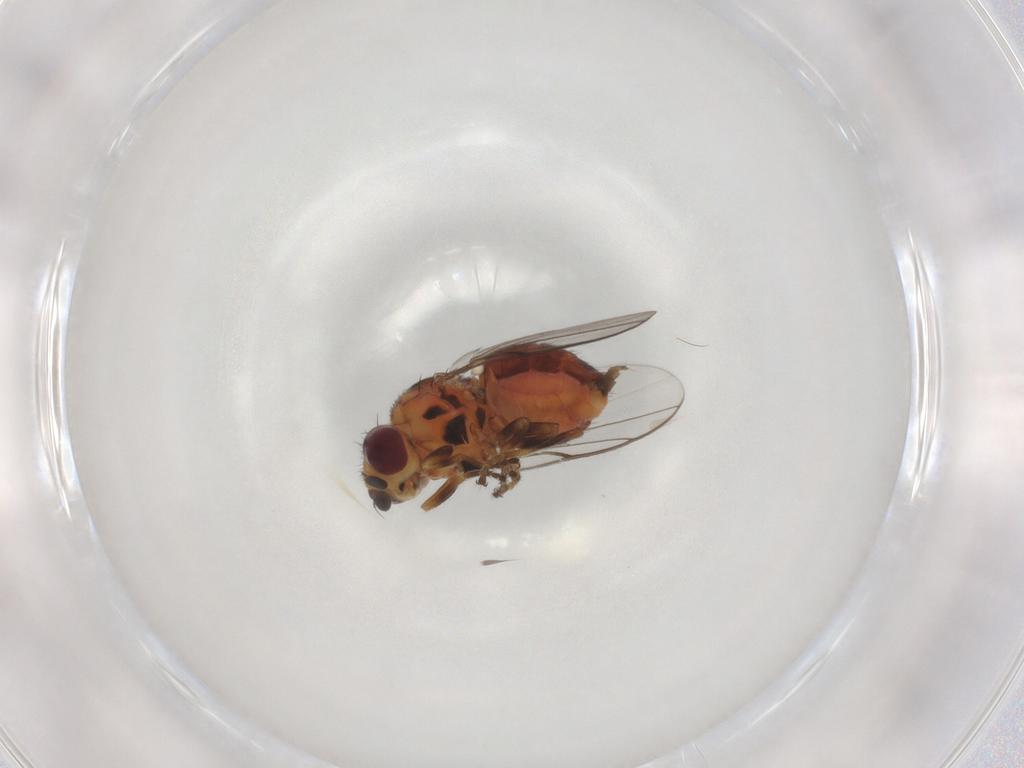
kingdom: Animalia
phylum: Arthropoda
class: Insecta
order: Diptera
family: Chloropidae
